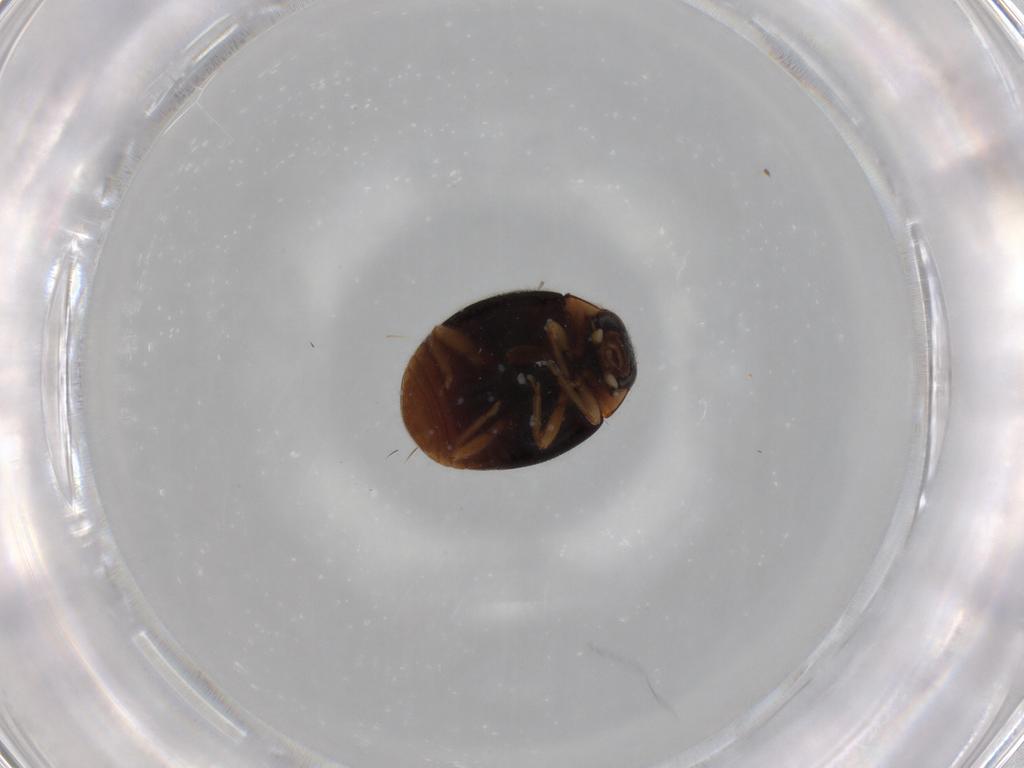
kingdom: Animalia
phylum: Arthropoda
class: Insecta
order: Coleoptera
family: Coccinellidae
